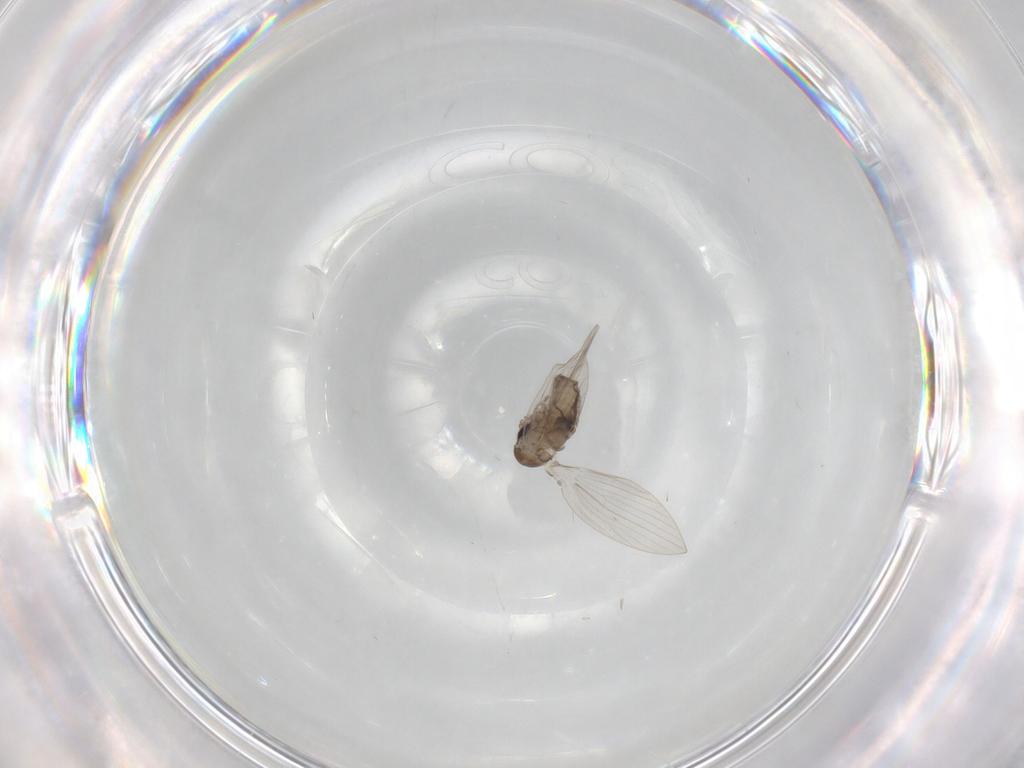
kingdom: Animalia
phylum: Arthropoda
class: Insecta
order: Diptera
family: Psychodidae
